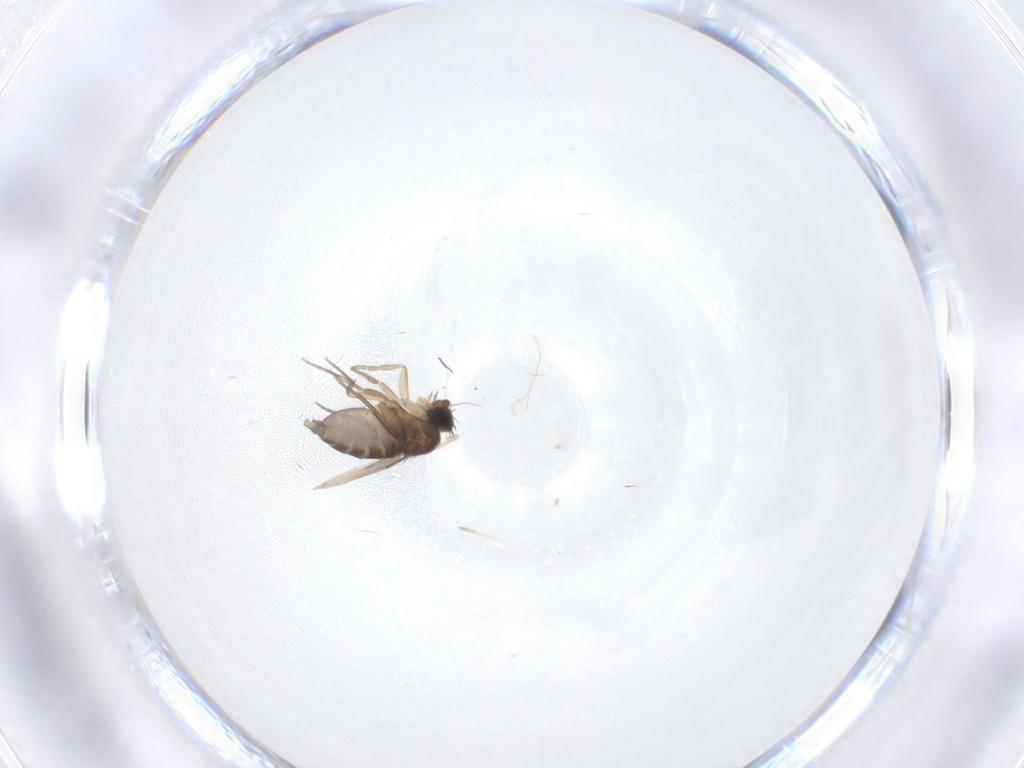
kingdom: Animalia
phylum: Arthropoda
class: Insecta
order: Diptera
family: Phoridae
